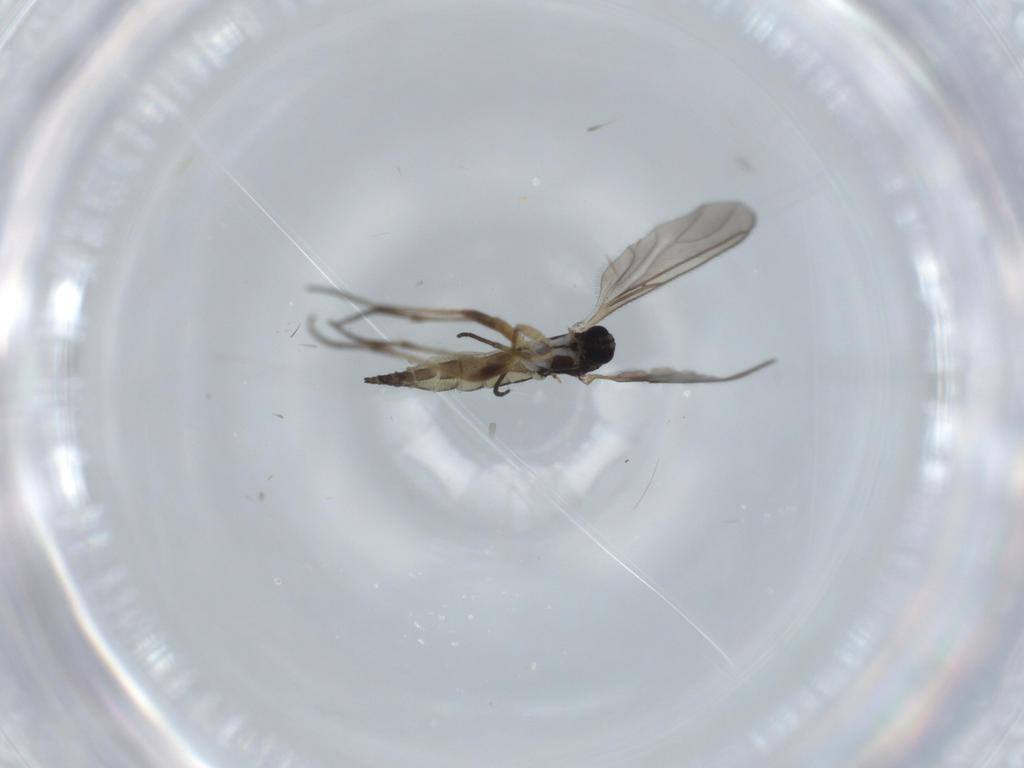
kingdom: Animalia
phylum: Arthropoda
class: Insecta
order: Diptera
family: Sciaridae
